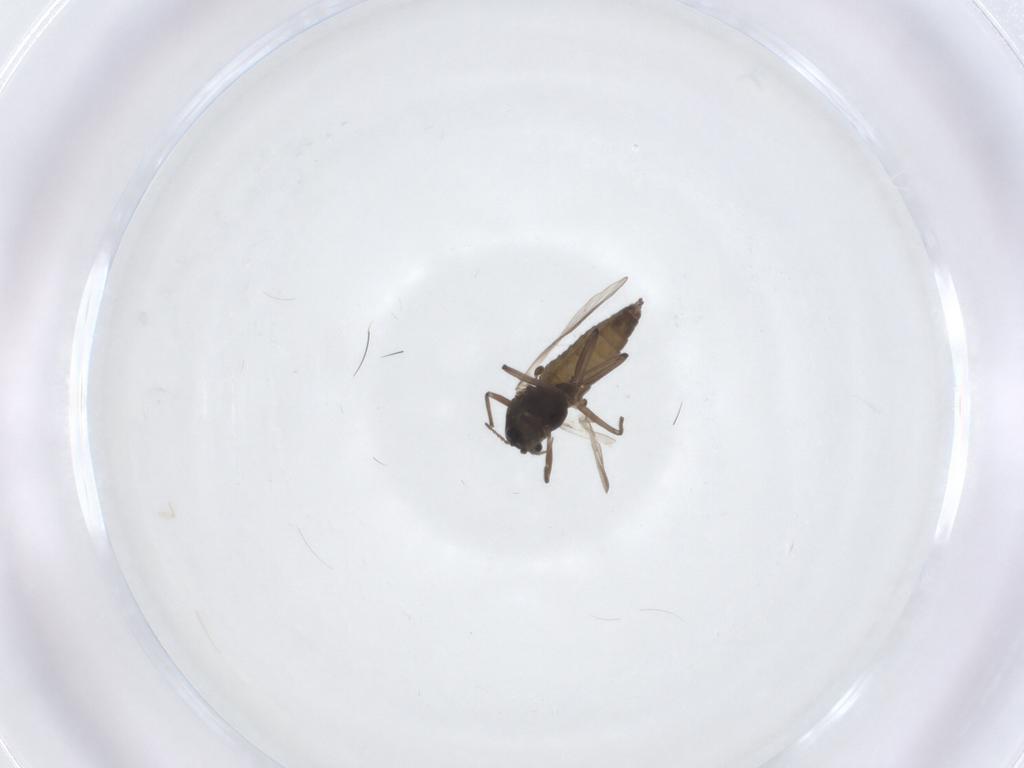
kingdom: Animalia
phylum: Arthropoda
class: Insecta
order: Diptera
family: Chironomidae
